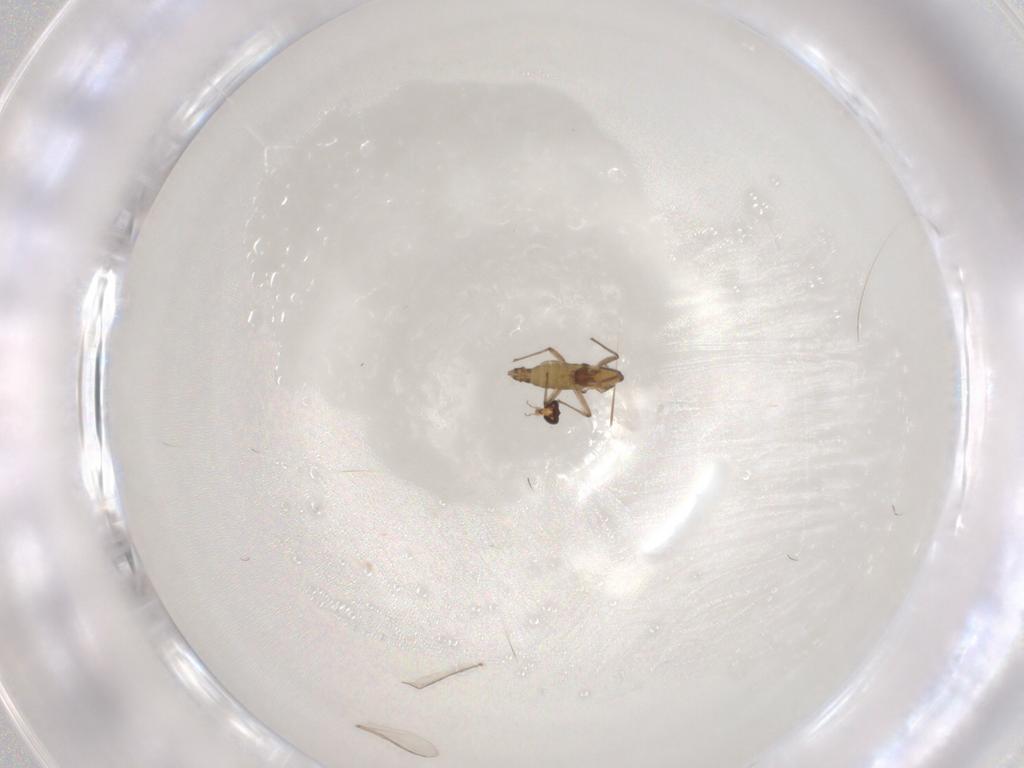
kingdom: Animalia
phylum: Arthropoda
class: Insecta
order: Diptera
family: Chironomidae
